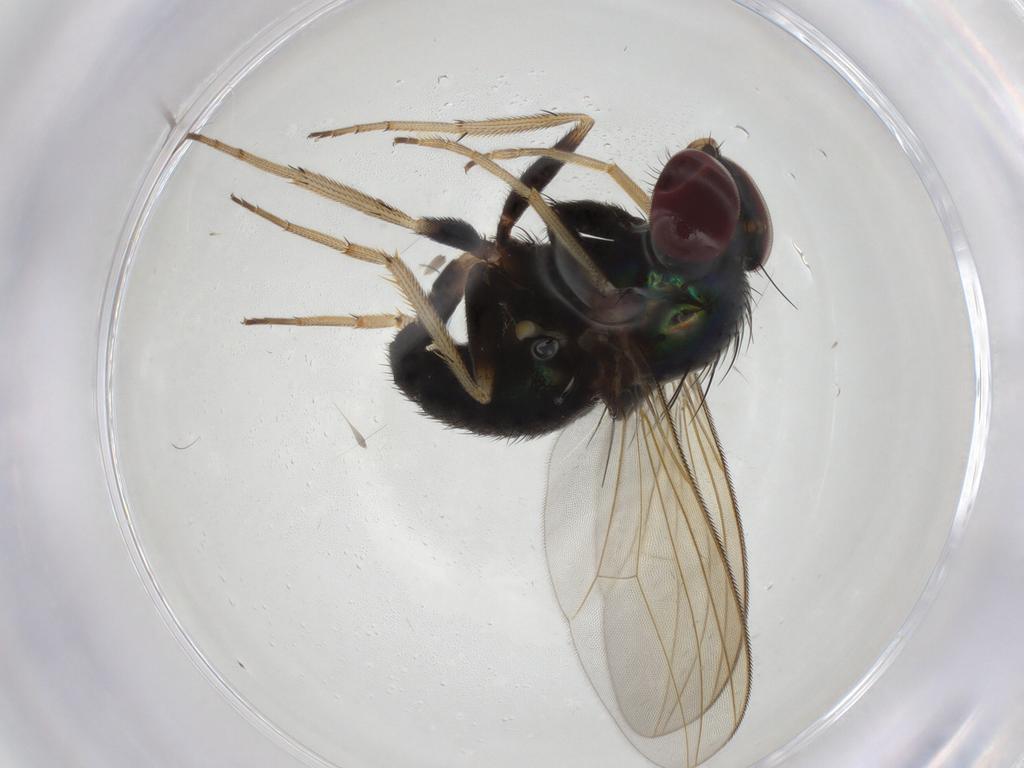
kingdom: Animalia
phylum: Arthropoda
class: Insecta
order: Diptera
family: Dolichopodidae
